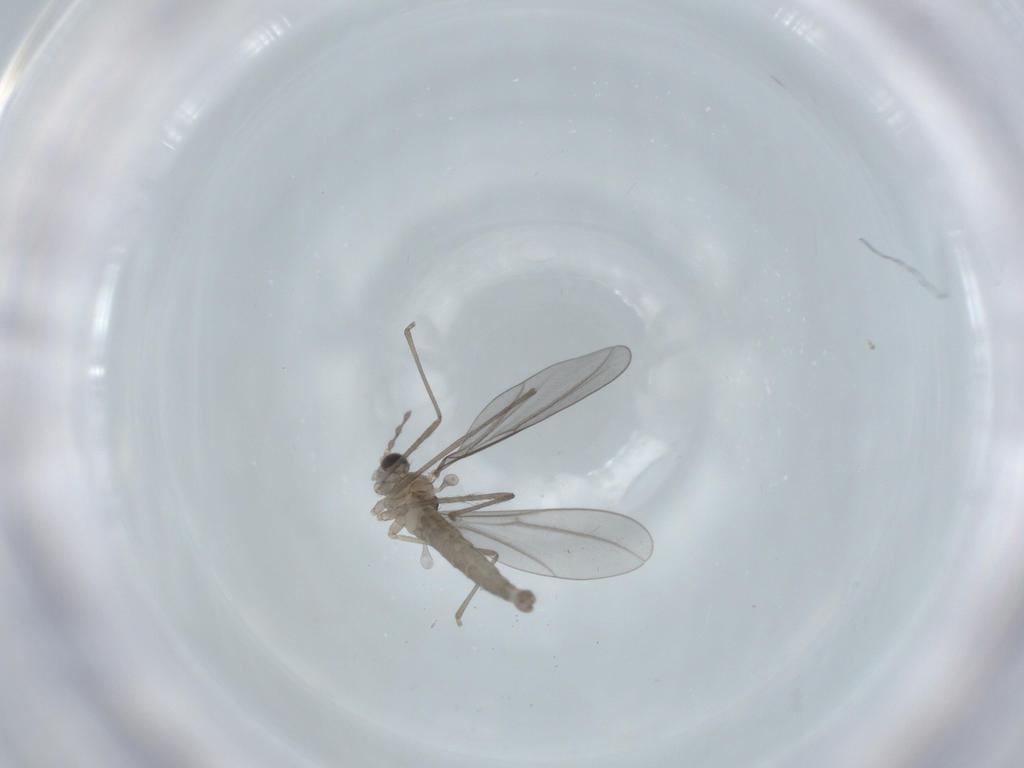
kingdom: Animalia
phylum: Arthropoda
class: Insecta
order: Diptera
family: Cecidomyiidae
